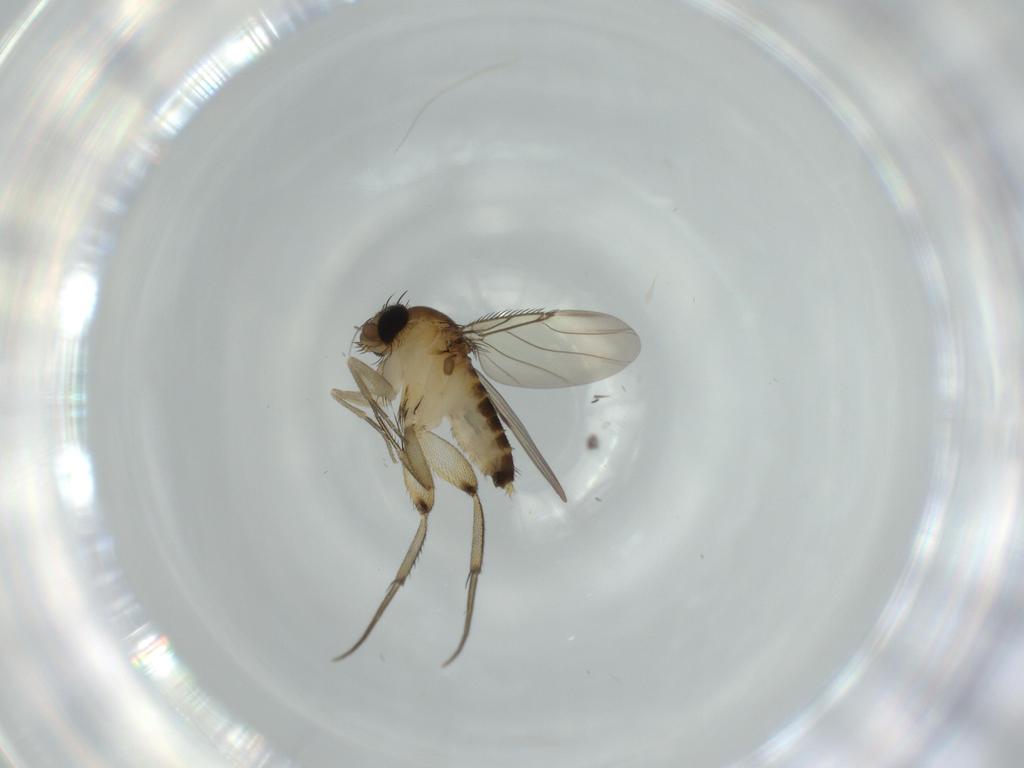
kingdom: Animalia
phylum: Arthropoda
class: Insecta
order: Diptera
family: Phoridae
